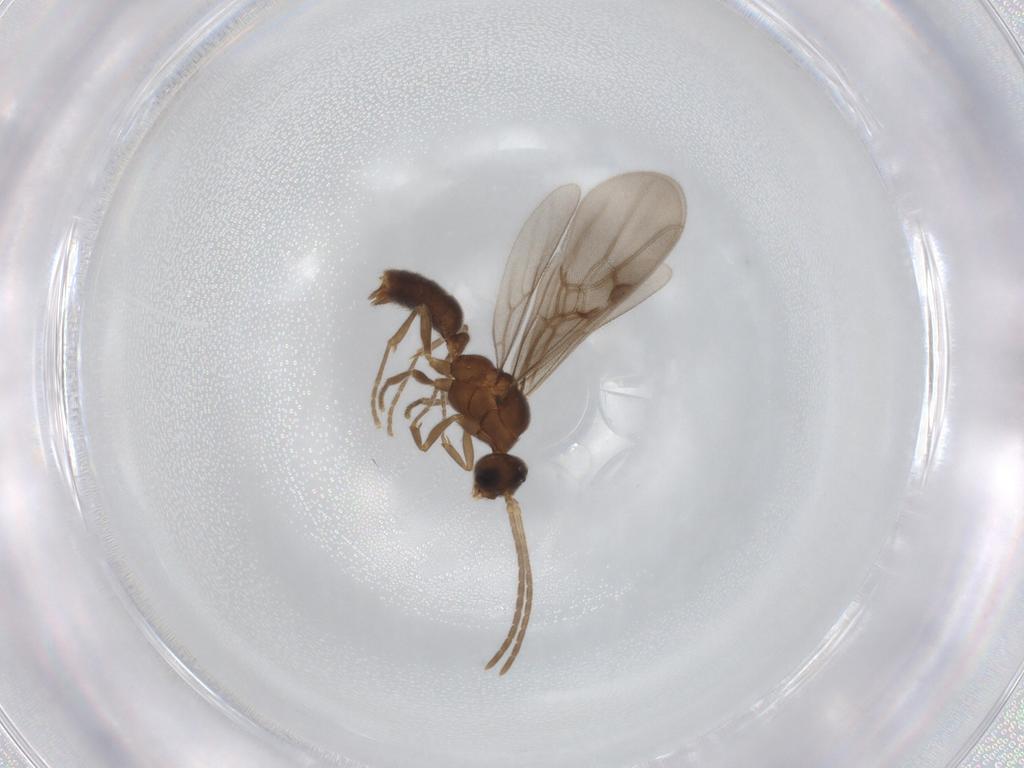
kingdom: Animalia
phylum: Arthropoda
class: Insecta
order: Hymenoptera
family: Formicidae
